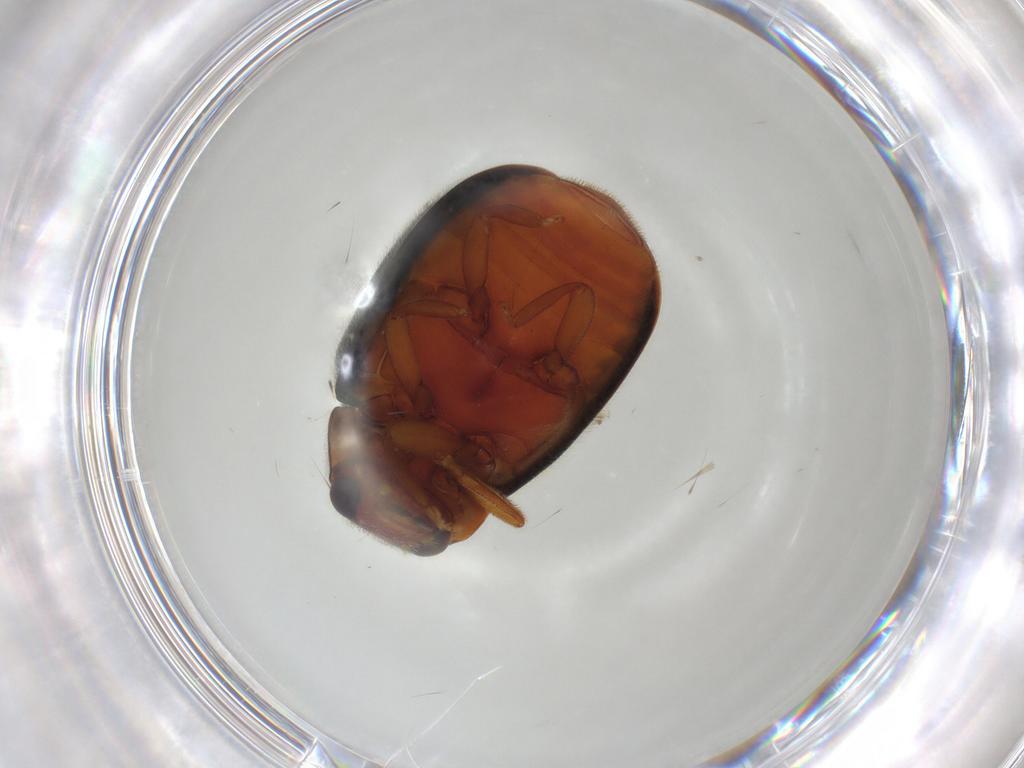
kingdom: Animalia
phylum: Arthropoda
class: Insecta
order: Coleoptera
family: Coccinellidae
